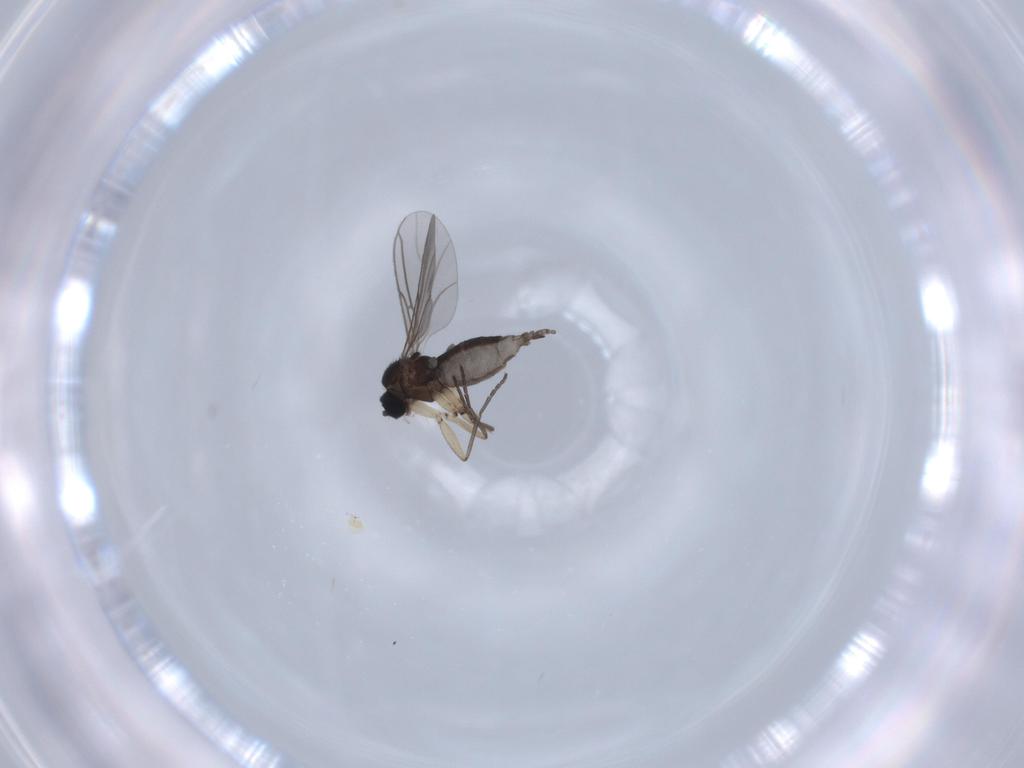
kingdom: Animalia
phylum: Arthropoda
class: Insecta
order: Diptera
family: Sciaridae
